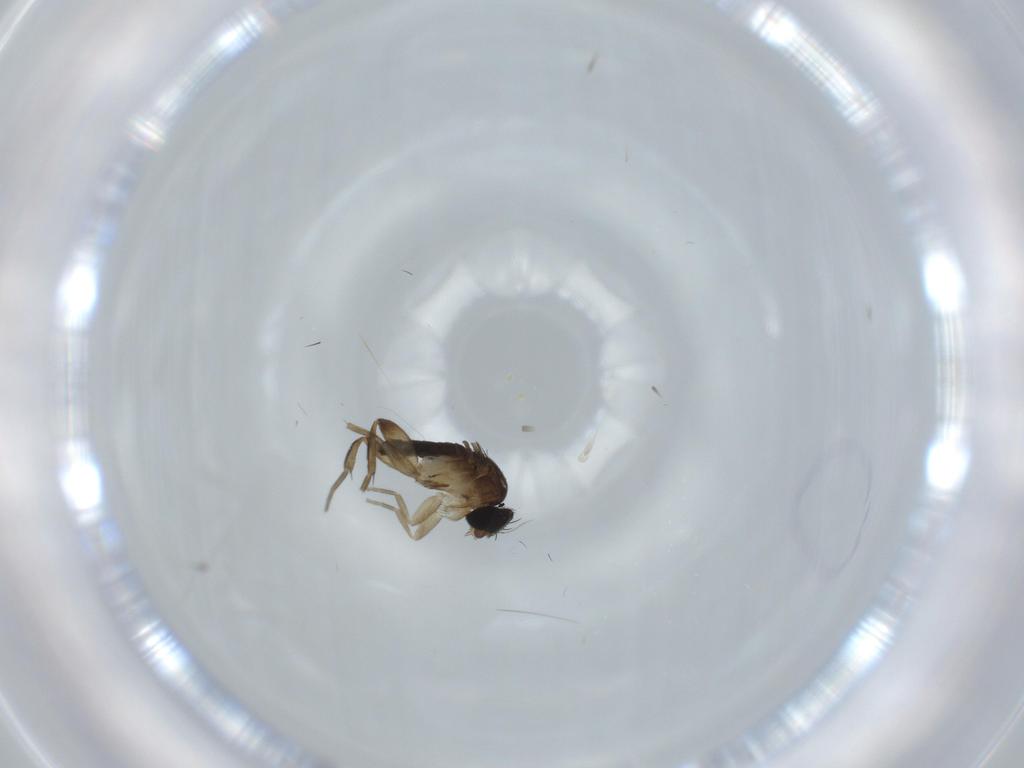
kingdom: Animalia
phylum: Arthropoda
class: Insecta
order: Diptera
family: Phoridae
